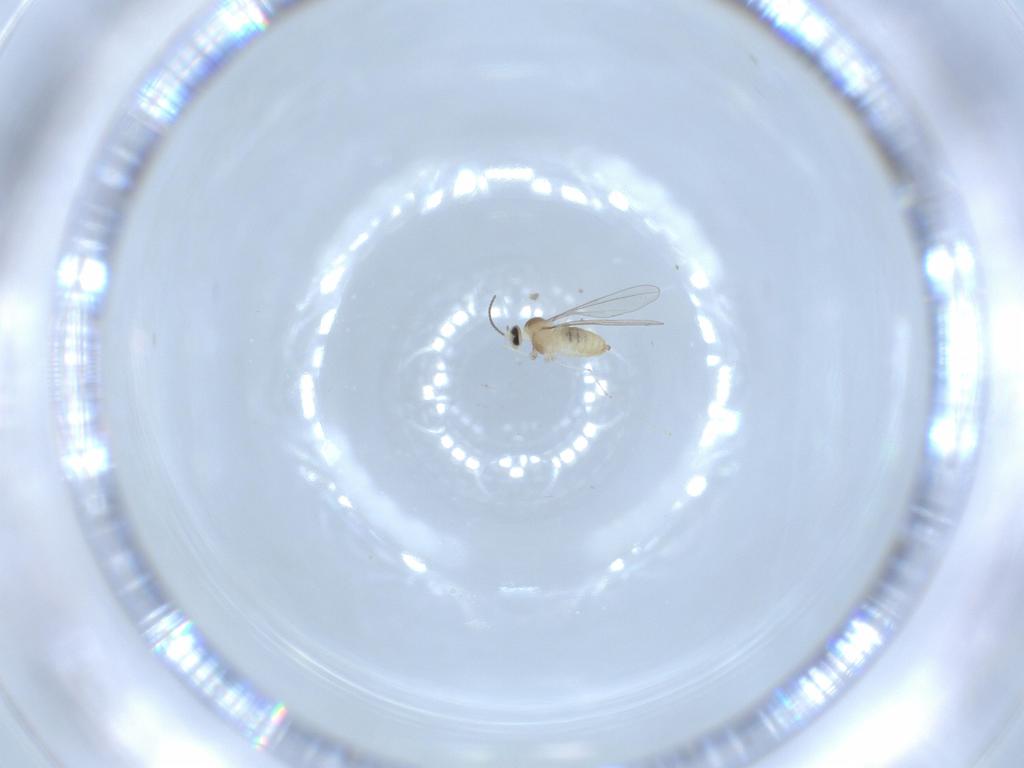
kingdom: Animalia
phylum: Arthropoda
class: Insecta
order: Diptera
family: Cecidomyiidae
